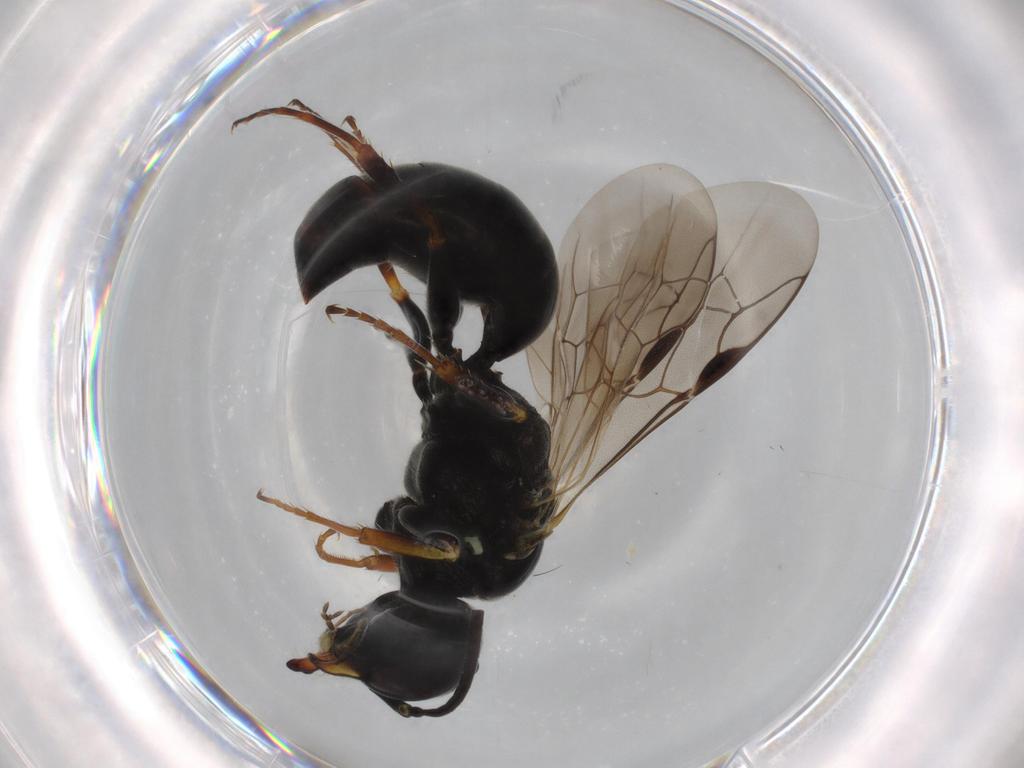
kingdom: Animalia
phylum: Arthropoda
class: Insecta
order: Hymenoptera
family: Crabronidae
